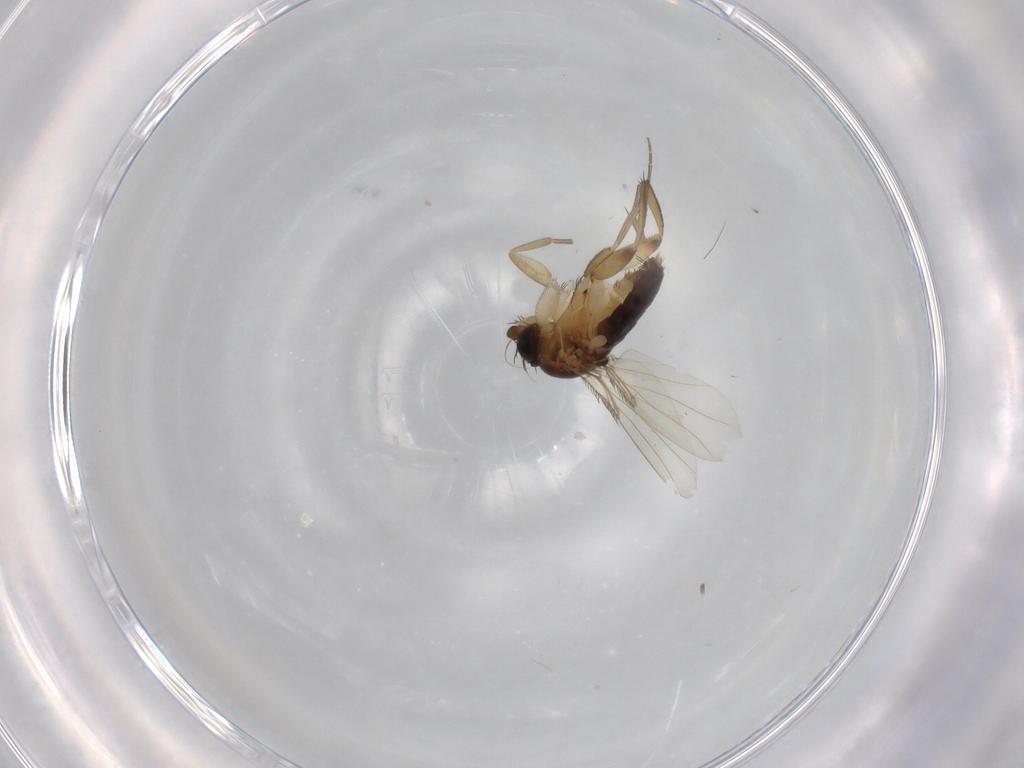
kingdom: Animalia
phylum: Arthropoda
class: Insecta
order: Diptera
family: Phoridae
